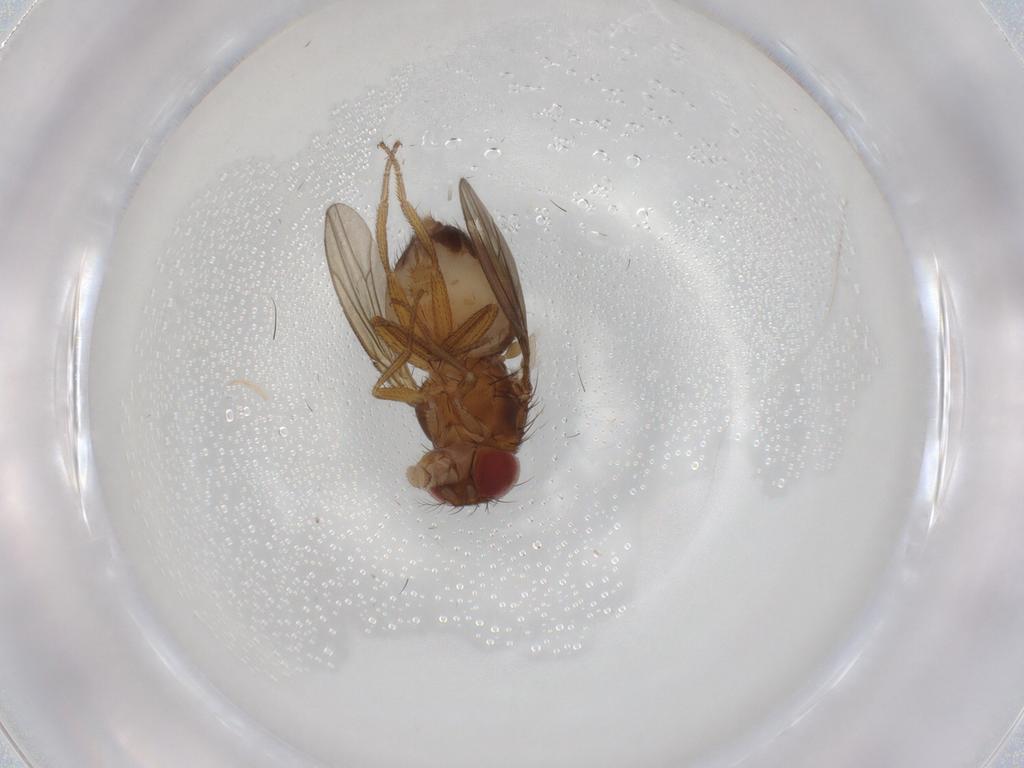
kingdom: Animalia
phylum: Arthropoda
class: Insecta
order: Diptera
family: Drosophilidae
